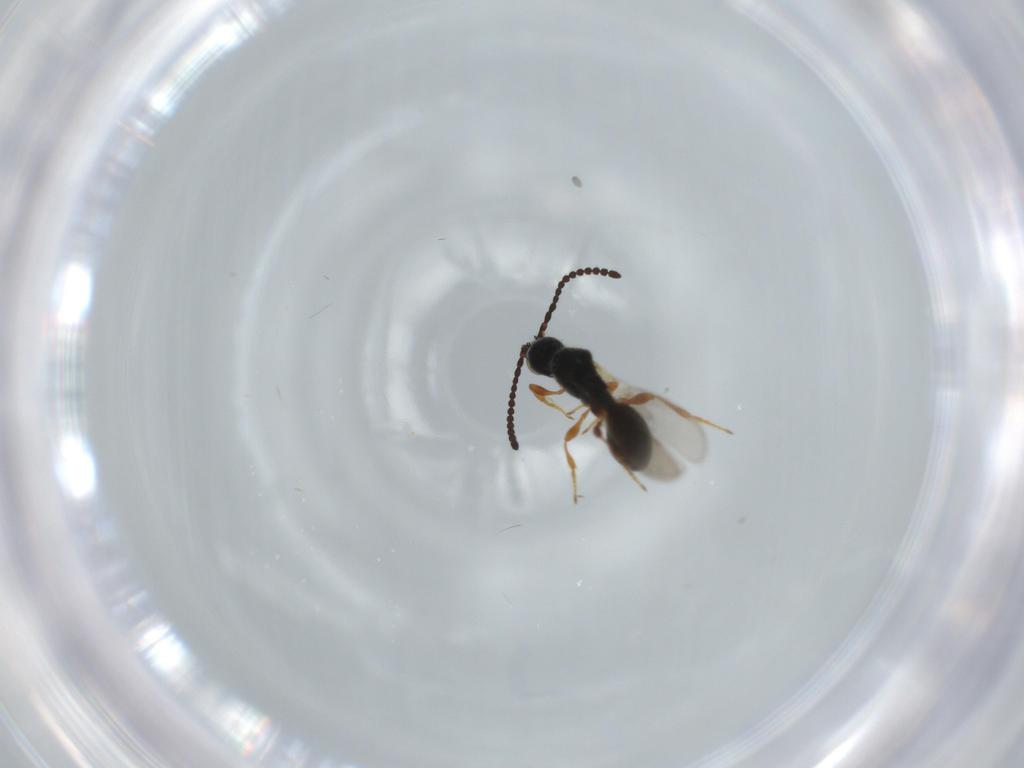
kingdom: Animalia
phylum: Arthropoda
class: Insecta
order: Hymenoptera
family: Diapriidae
